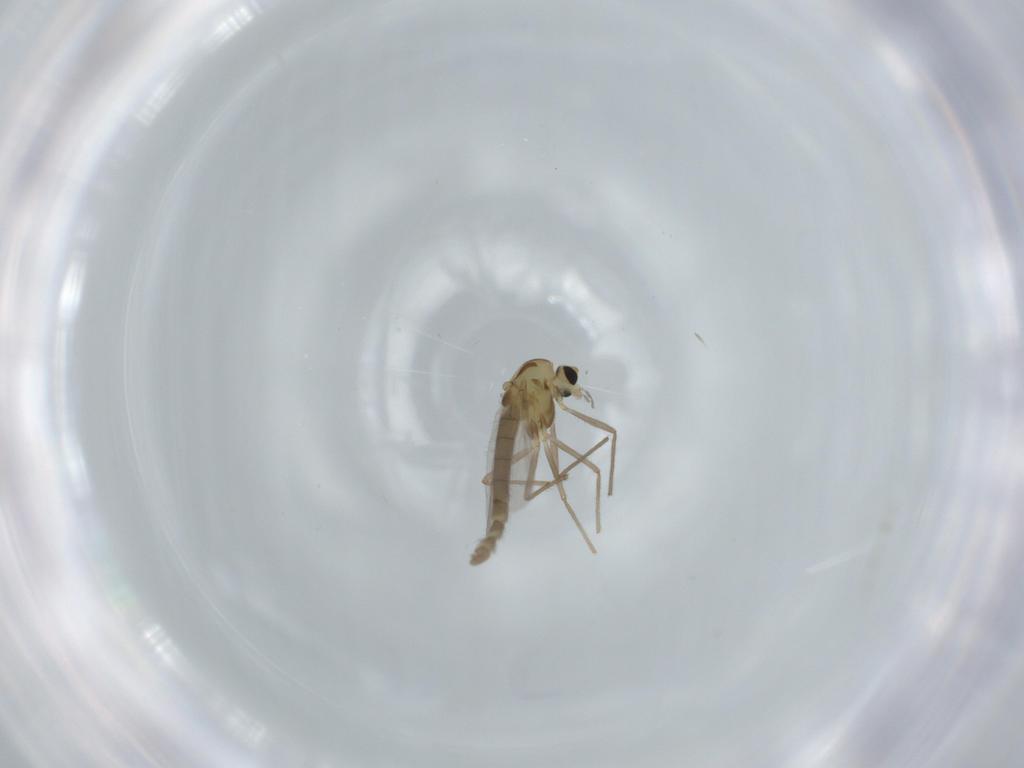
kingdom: Animalia
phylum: Arthropoda
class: Insecta
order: Diptera
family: Chironomidae
